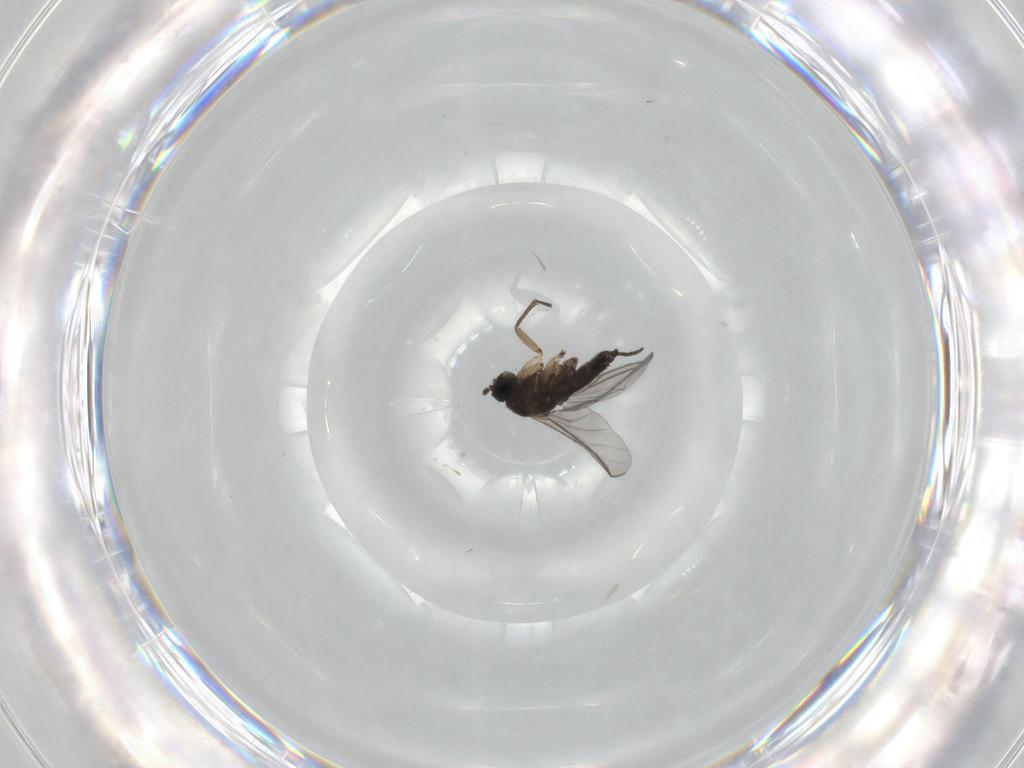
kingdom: Animalia
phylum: Arthropoda
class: Insecta
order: Diptera
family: Sciaridae
